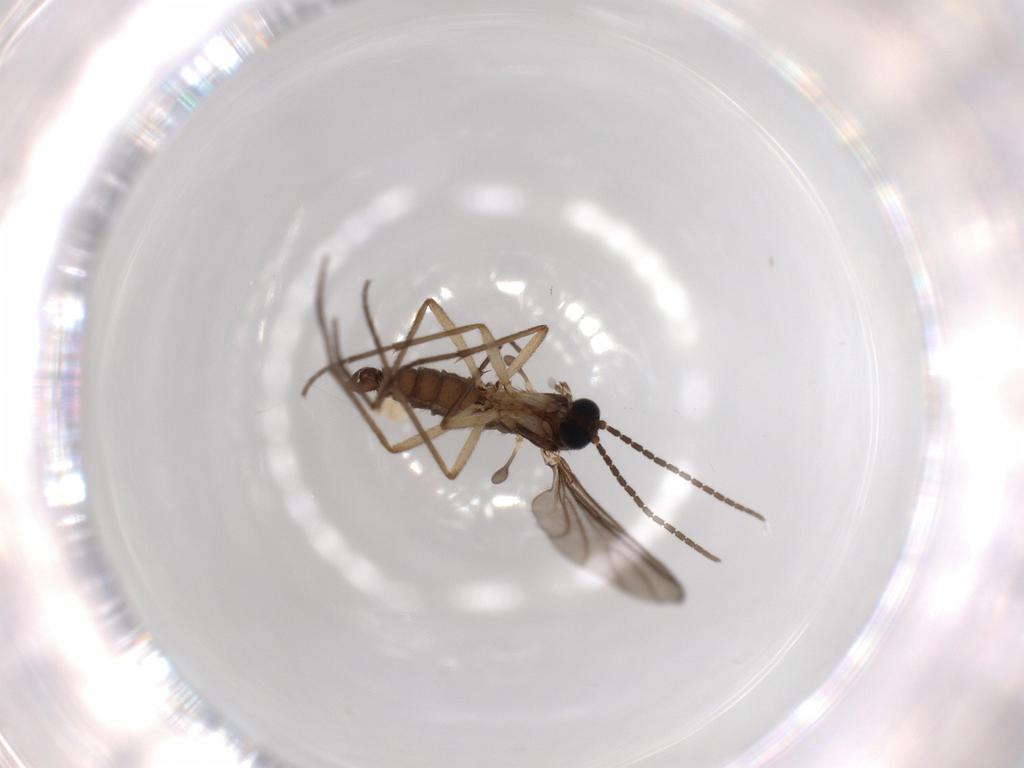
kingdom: Animalia
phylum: Arthropoda
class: Insecta
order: Diptera
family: Sciaridae
